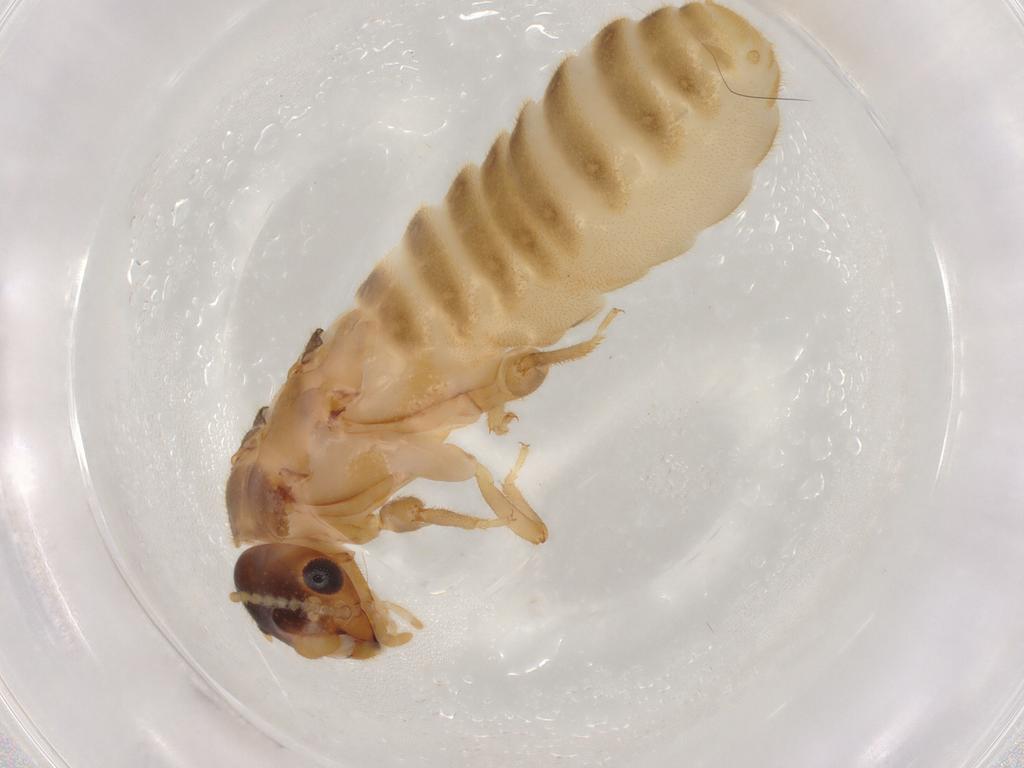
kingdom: Animalia
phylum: Arthropoda
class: Insecta
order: Blattodea
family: Termitidae
